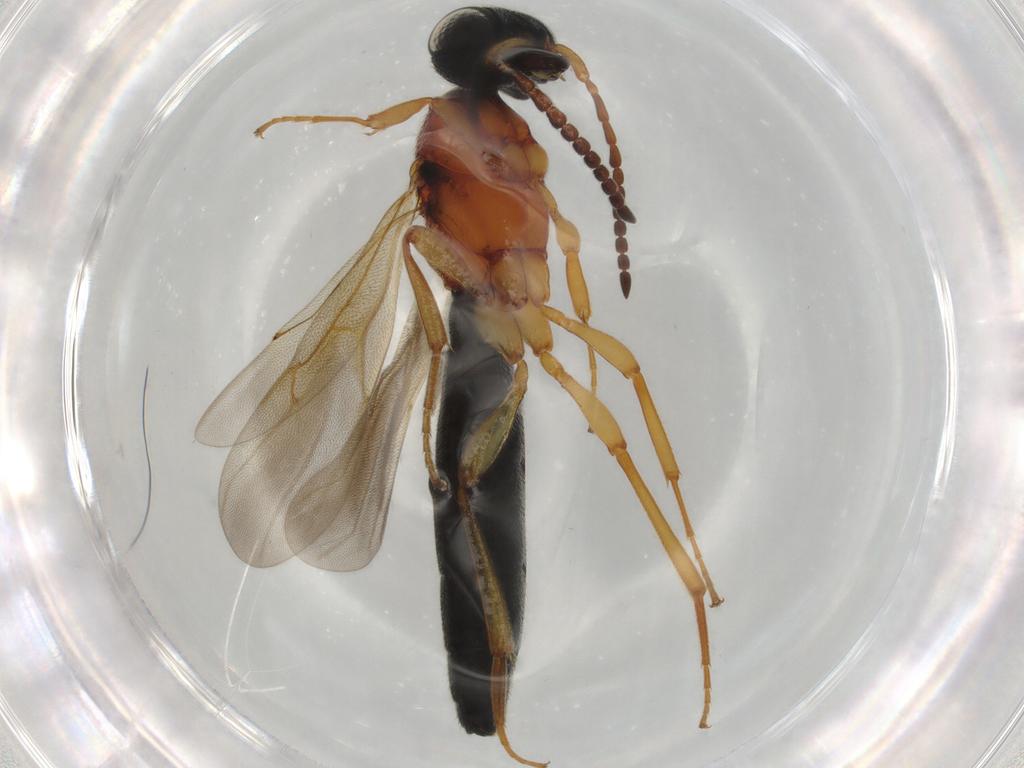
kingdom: Animalia
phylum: Arthropoda
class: Insecta
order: Hymenoptera
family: Scelionidae
